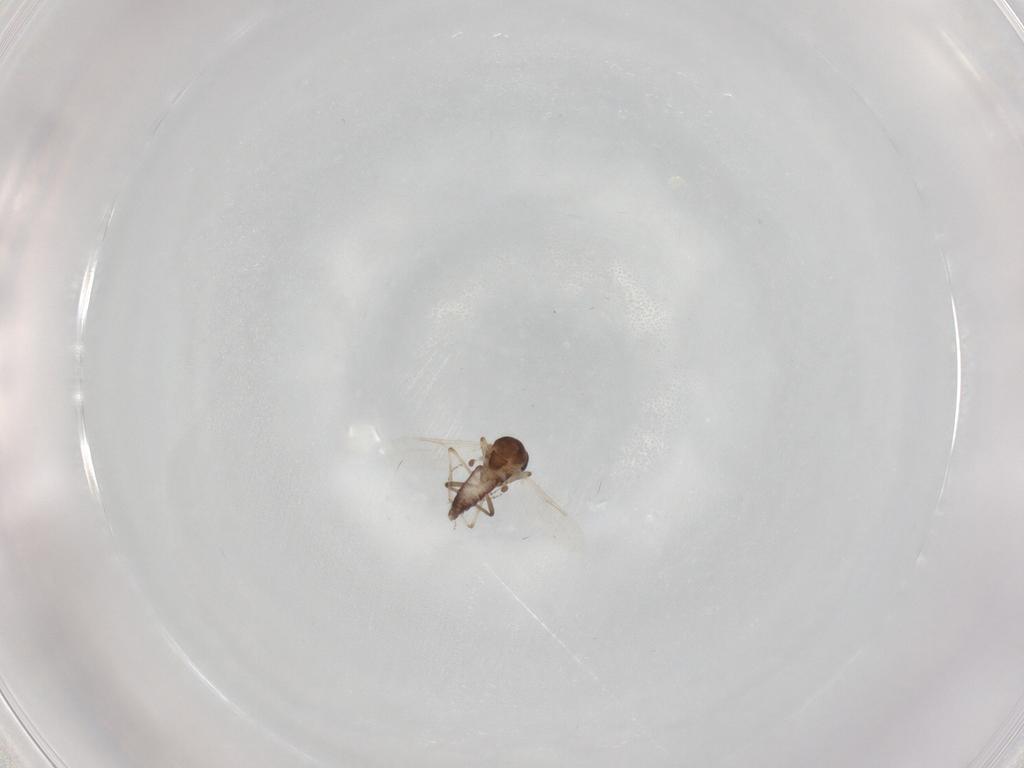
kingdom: Animalia
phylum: Arthropoda
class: Insecta
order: Diptera
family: Ceratopogonidae
